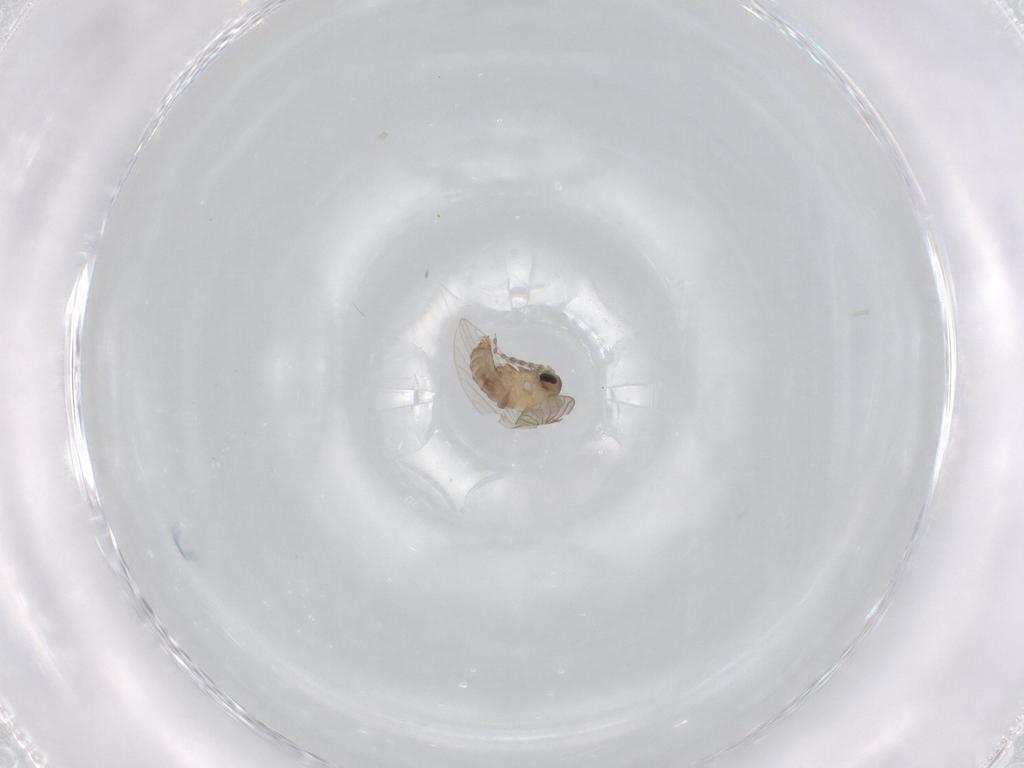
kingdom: Animalia
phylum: Arthropoda
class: Insecta
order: Diptera
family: Psychodidae
